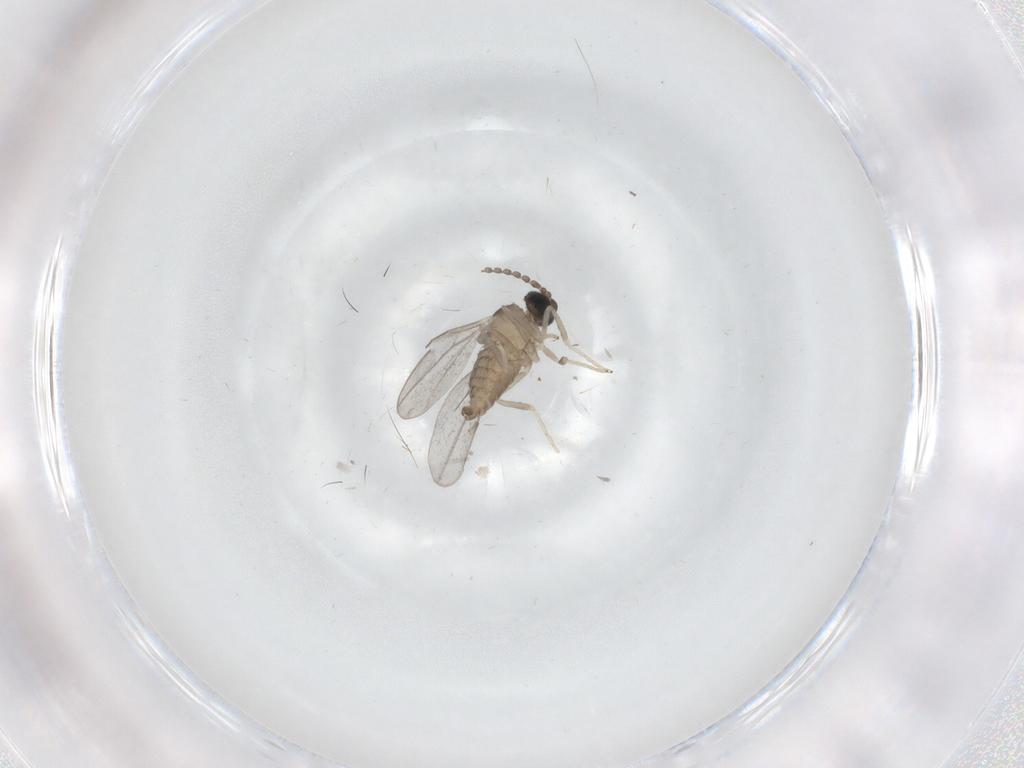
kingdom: Animalia
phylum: Arthropoda
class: Insecta
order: Diptera
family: Cecidomyiidae
